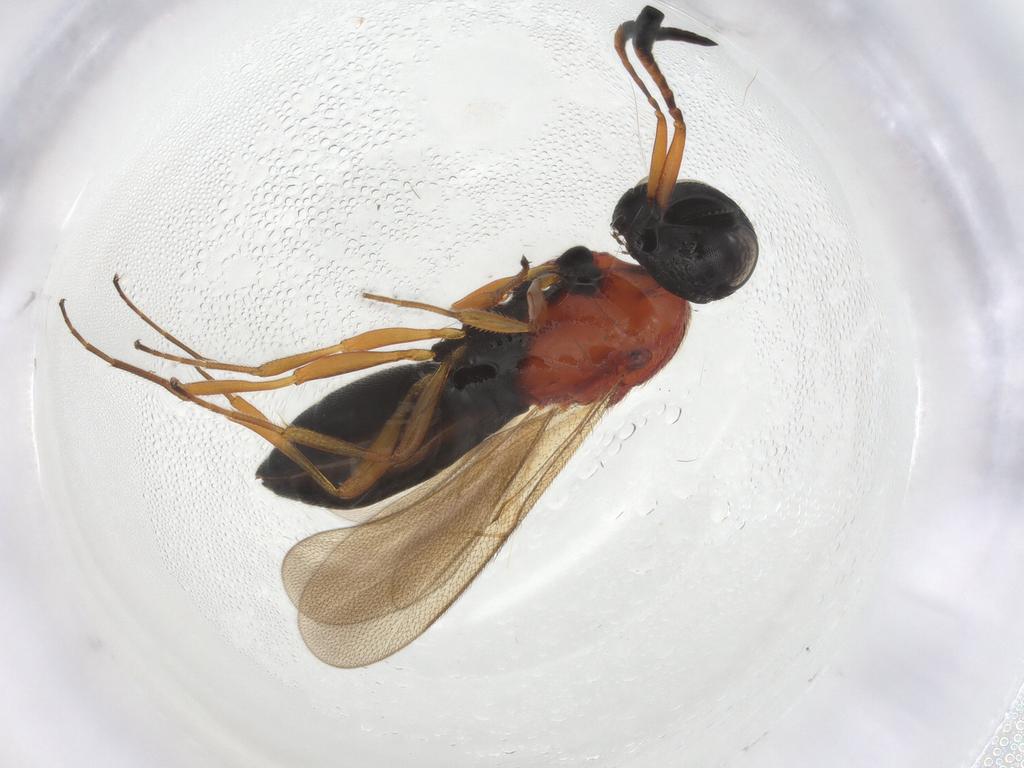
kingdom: Animalia
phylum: Arthropoda
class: Insecta
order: Hymenoptera
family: Scelionidae
